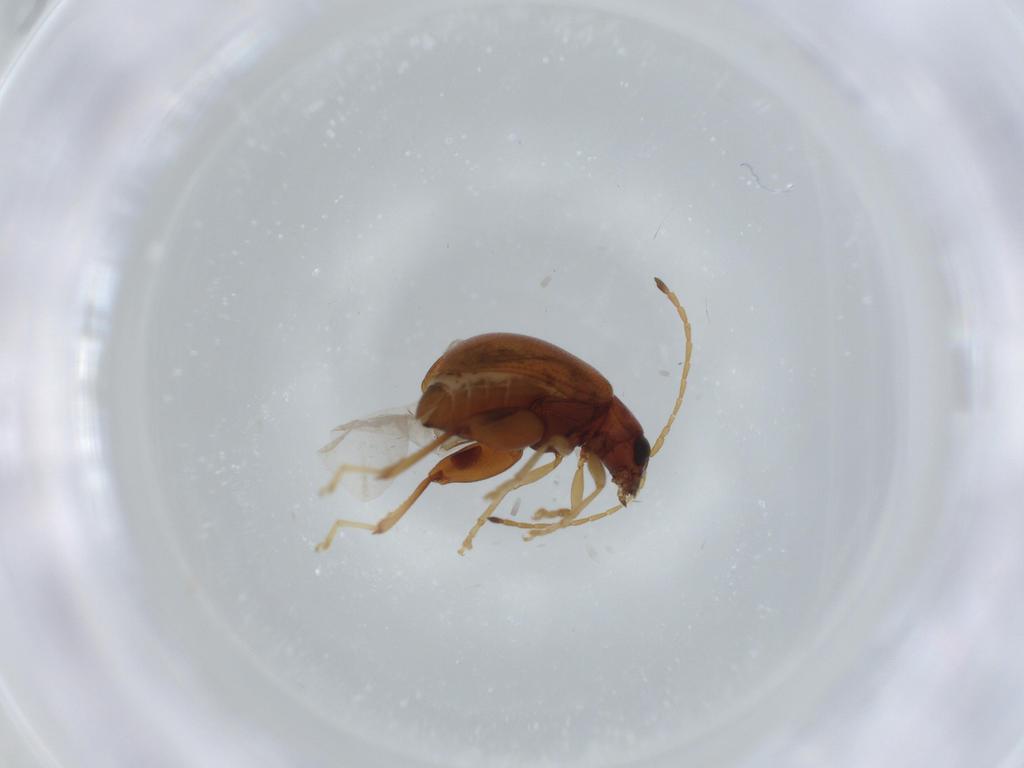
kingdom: Animalia
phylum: Arthropoda
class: Insecta
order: Coleoptera
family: Chrysomelidae
